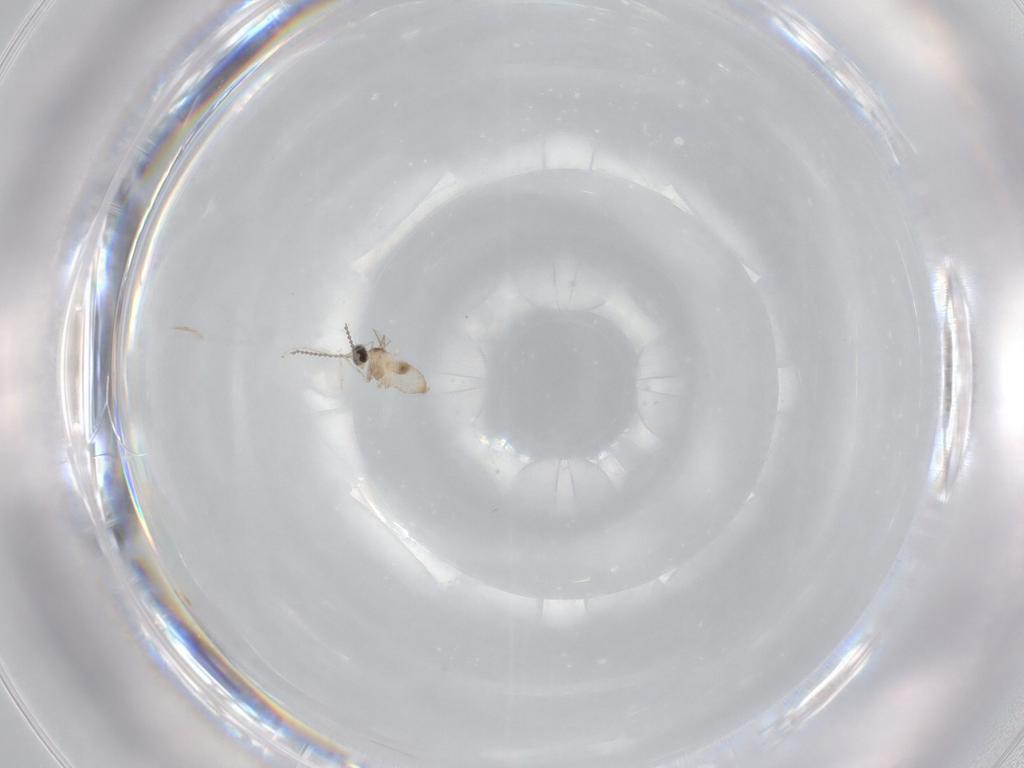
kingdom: Animalia
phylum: Arthropoda
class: Insecta
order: Diptera
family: Cecidomyiidae
